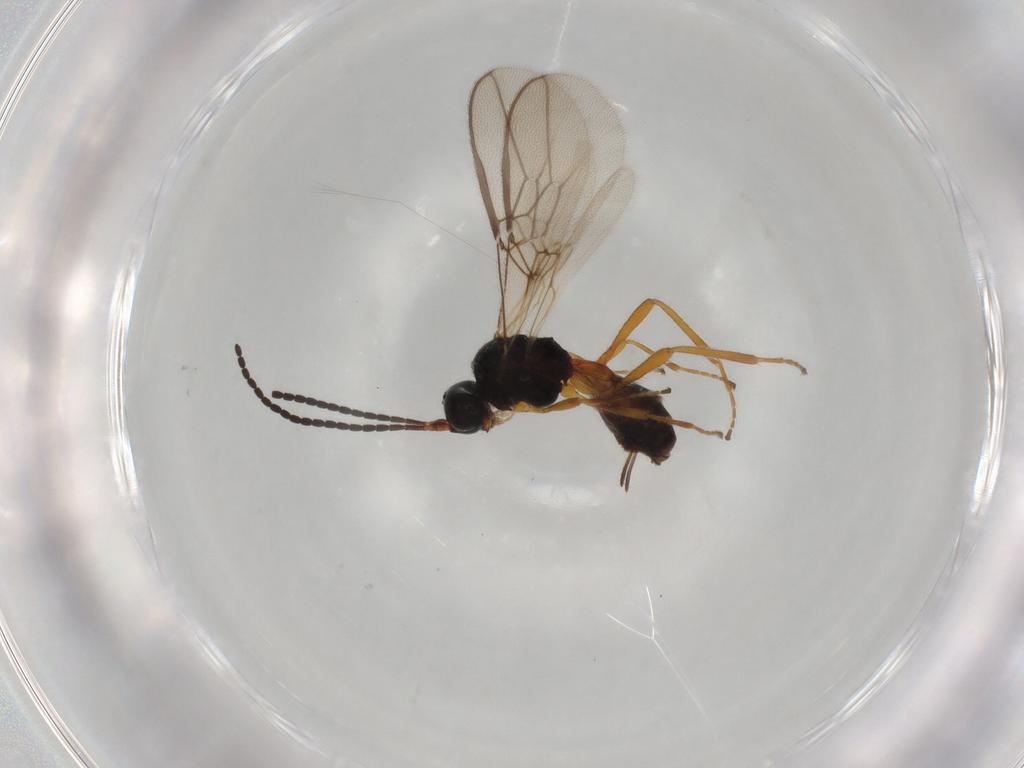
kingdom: Animalia
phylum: Arthropoda
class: Insecta
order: Hymenoptera
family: Braconidae
